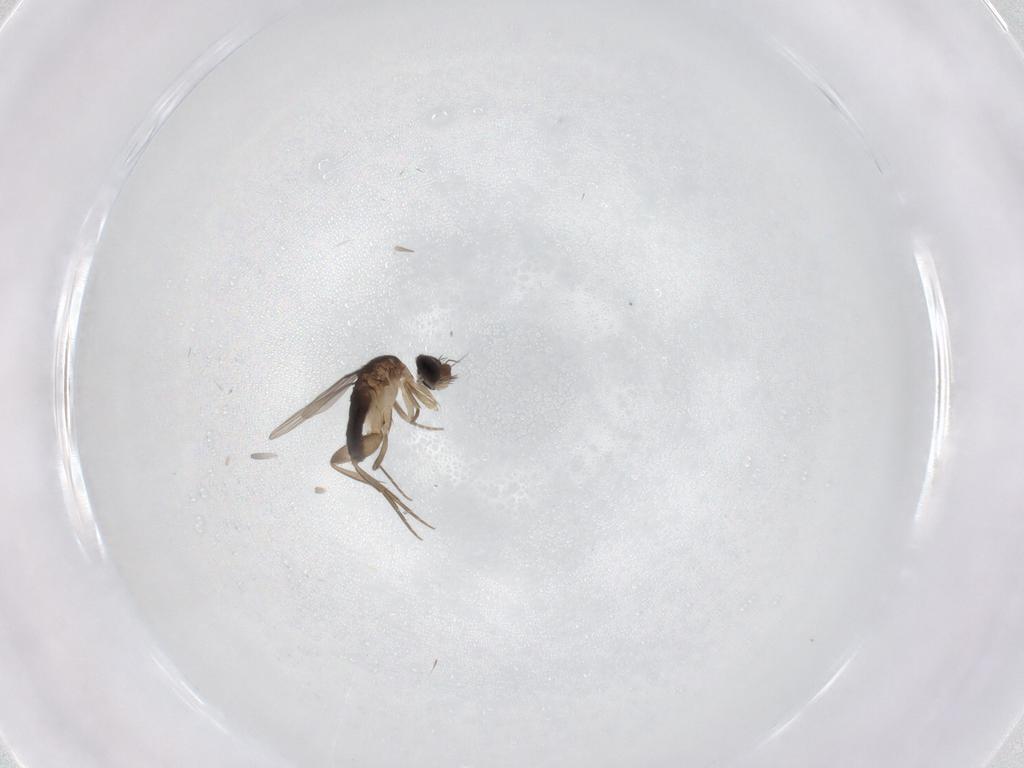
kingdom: Animalia
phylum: Arthropoda
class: Insecta
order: Diptera
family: Phoridae
